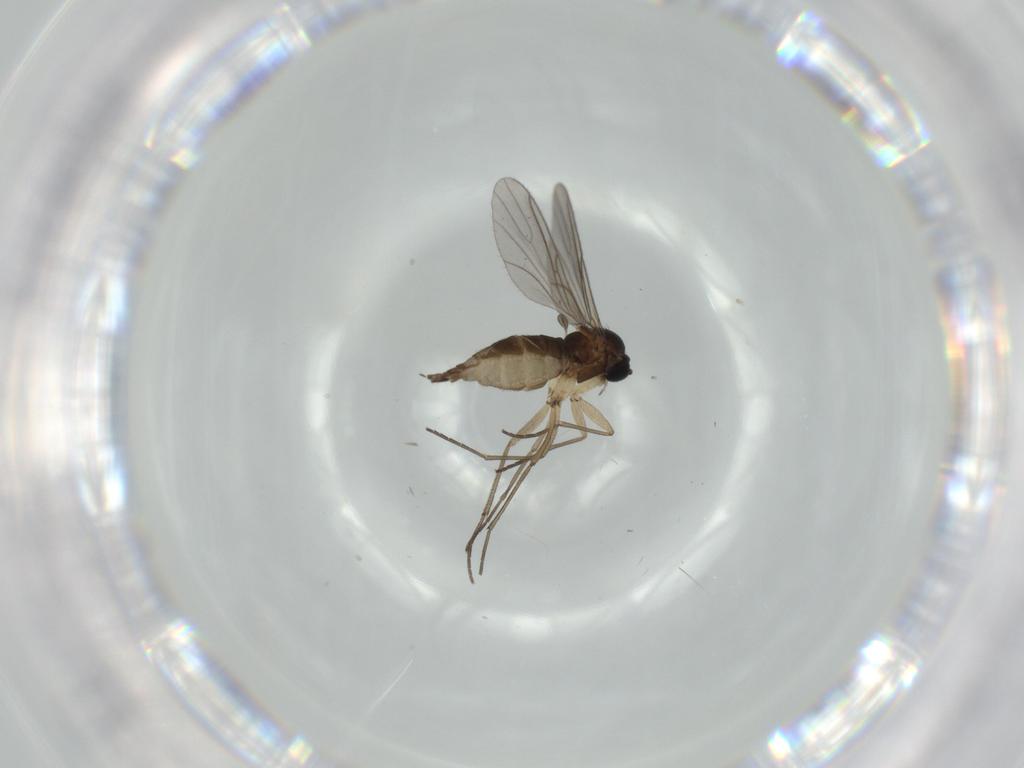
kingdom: Animalia
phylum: Arthropoda
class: Insecta
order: Diptera
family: Sciaridae
